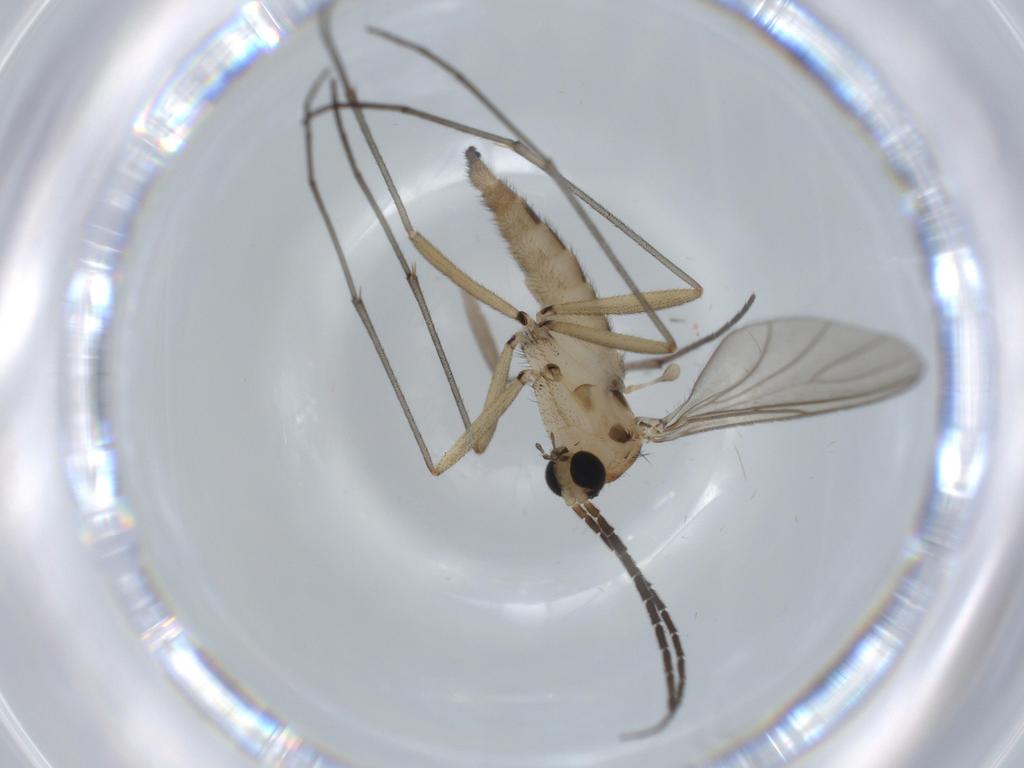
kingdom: Animalia
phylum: Arthropoda
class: Insecta
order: Diptera
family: Sciaridae
